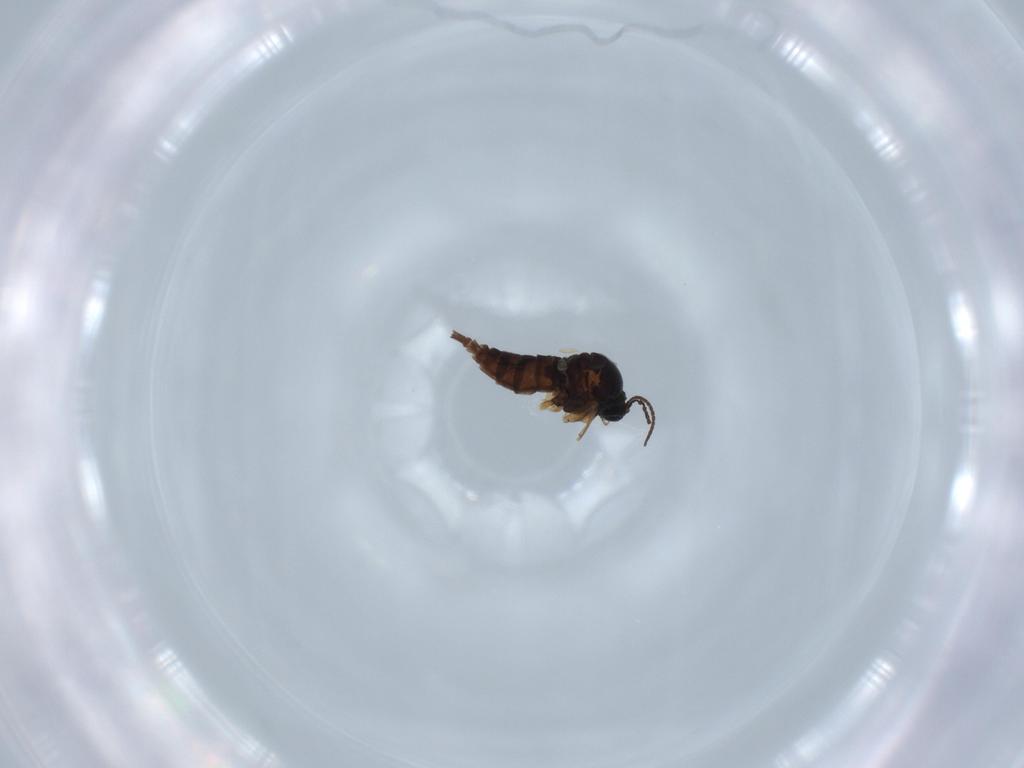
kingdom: Animalia
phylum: Arthropoda
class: Insecta
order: Diptera
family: Sciaridae
